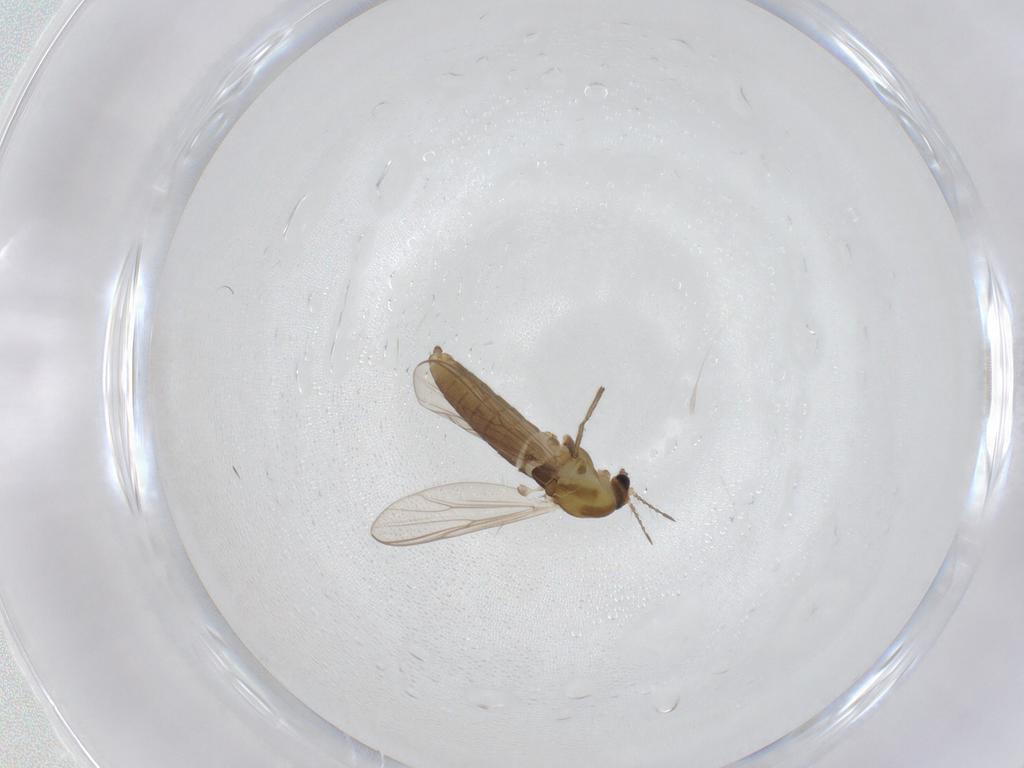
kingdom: Animalia
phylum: Arthropoda
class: Insecta
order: Diptera
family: Chironomidae
